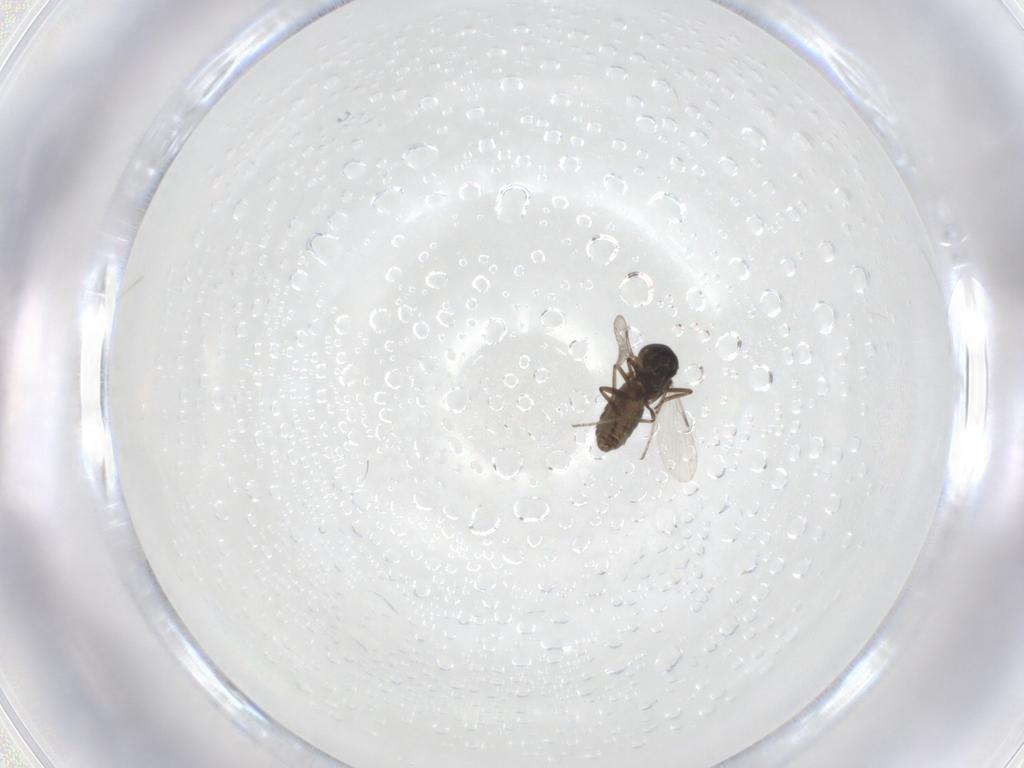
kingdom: Animalia
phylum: Arthropoda
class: Insecta
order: Diptera
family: Ceratopogonidae
